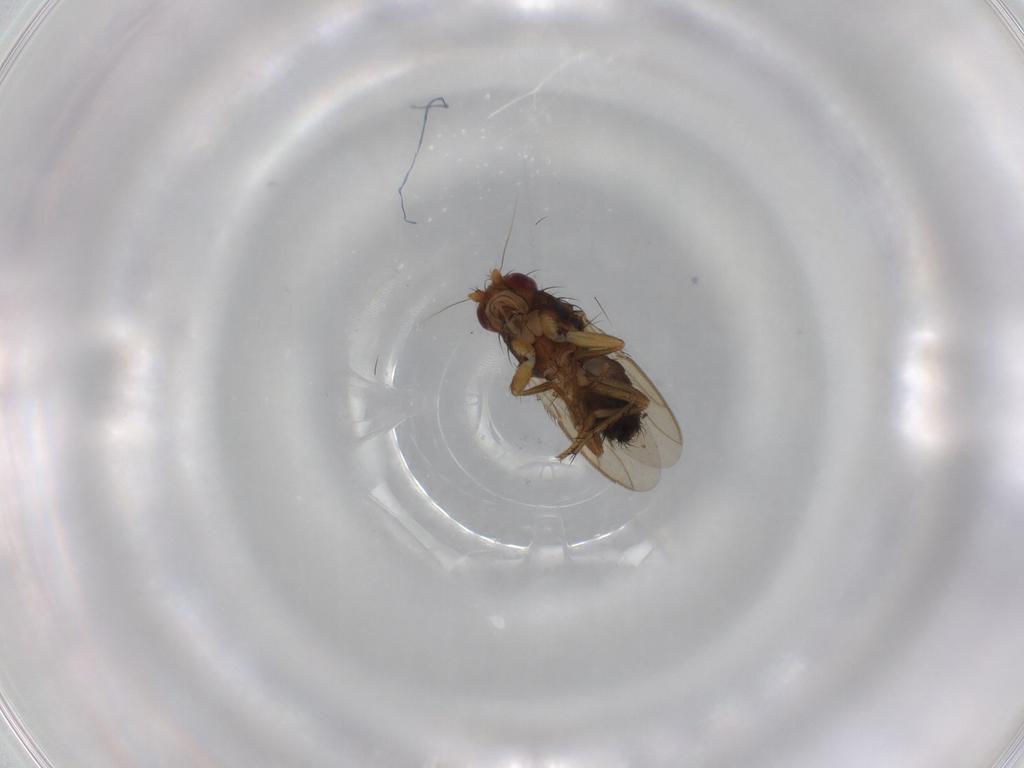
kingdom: Animalia
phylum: Arthropoda
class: Insecta
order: Diptera
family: Sphaeroceridae
